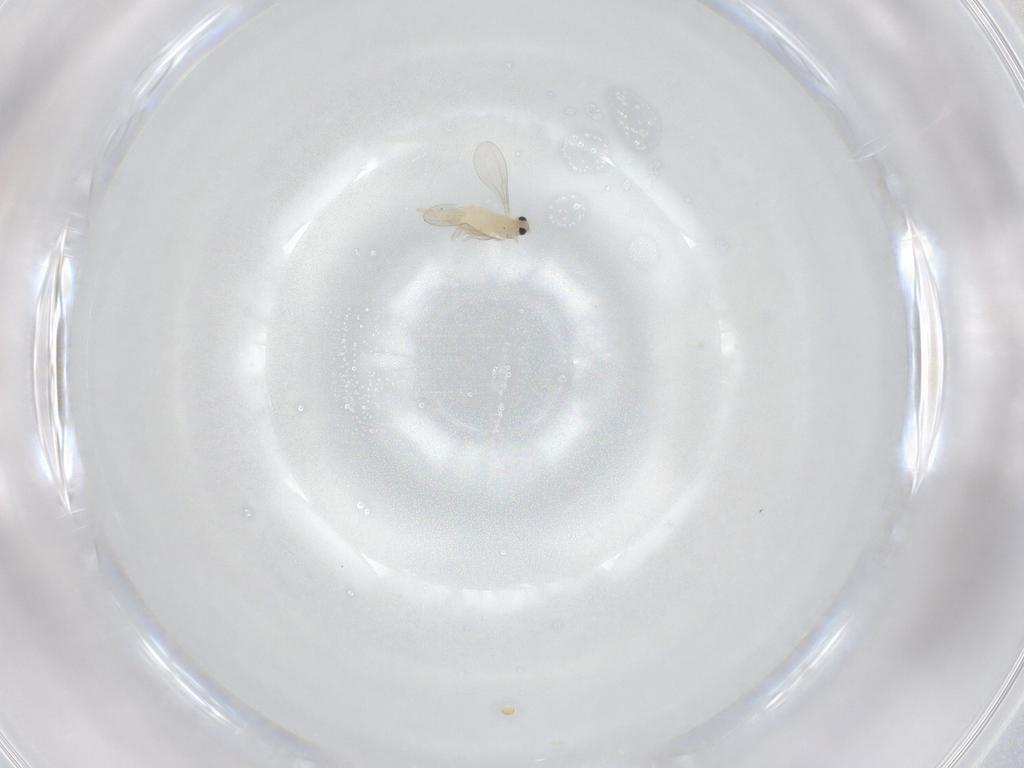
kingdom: Animalia
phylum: Arthropoda
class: Insecta
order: Diptera
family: Cecidomyiidae
